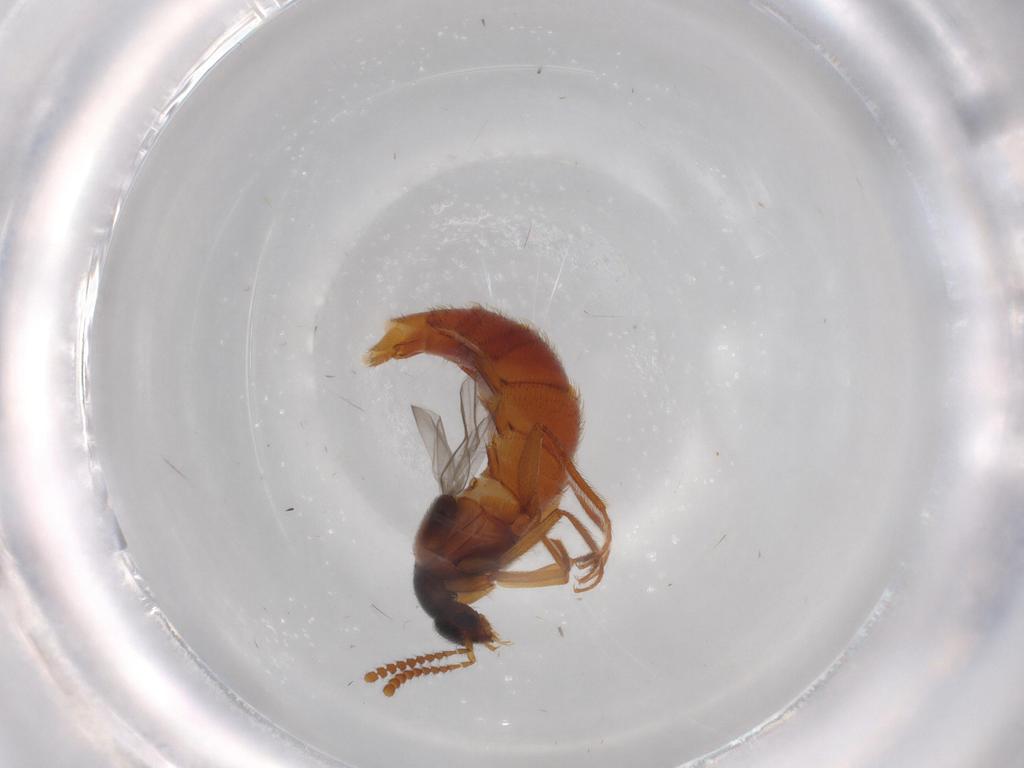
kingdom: Animalia
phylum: Arthropoda
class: Insecta
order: Coleoptera
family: Staphylinidae
